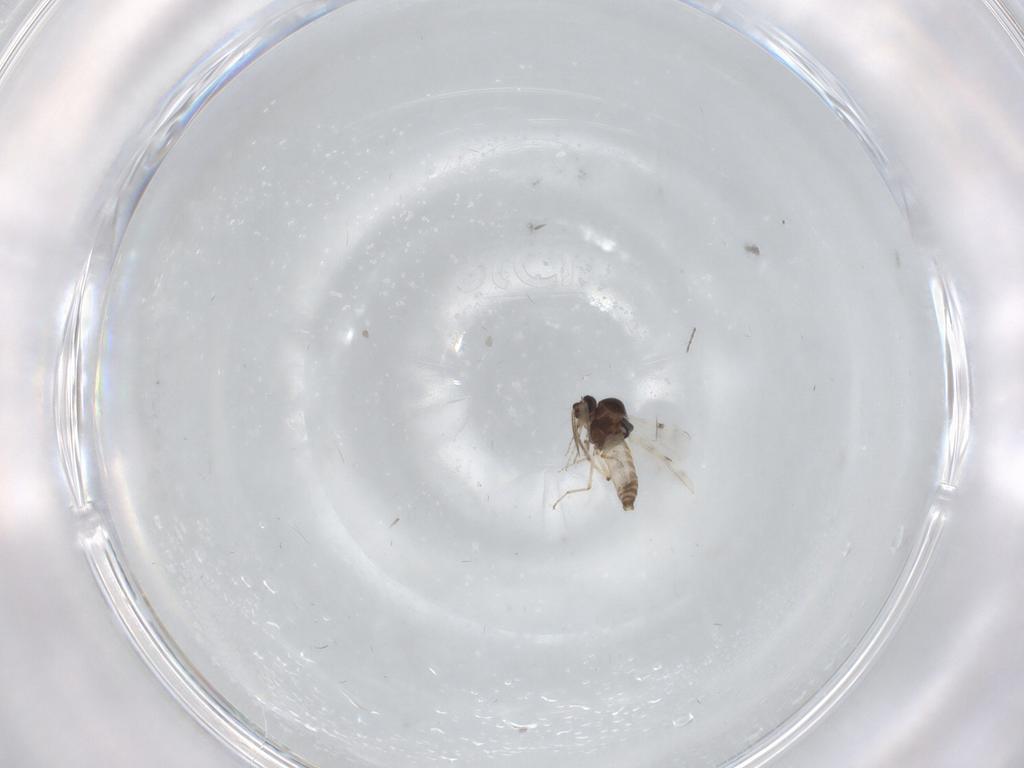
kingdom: Animalia
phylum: Arthropoda
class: Insecta
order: Diptera
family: Chironomidae
